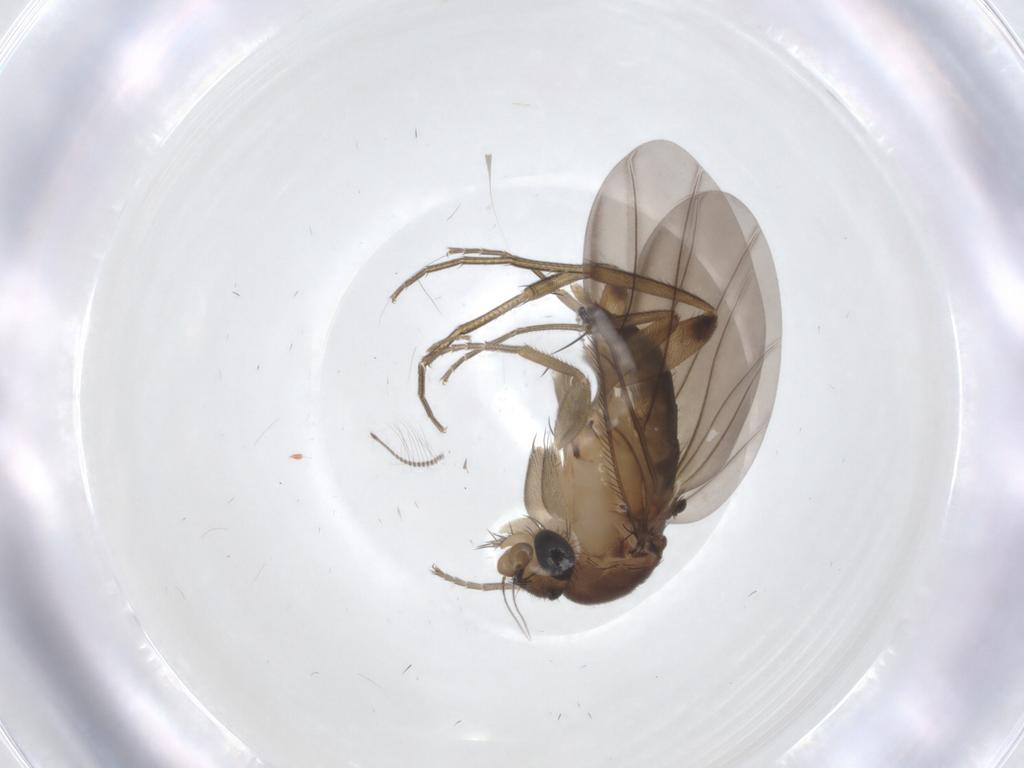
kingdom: Animalia
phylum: Arthropoda
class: Insecta
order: Diptera
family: Chironomidae
